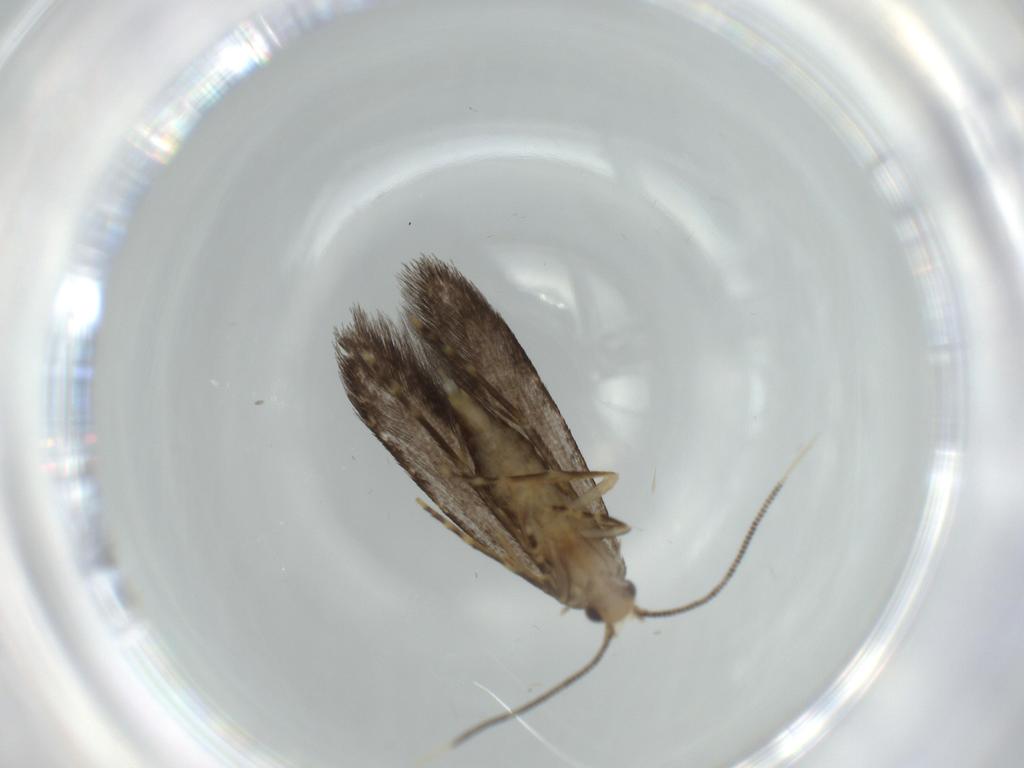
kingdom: Animalia
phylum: Arthropoda
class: Insecta
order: Lepidoptera
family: Tineidae
